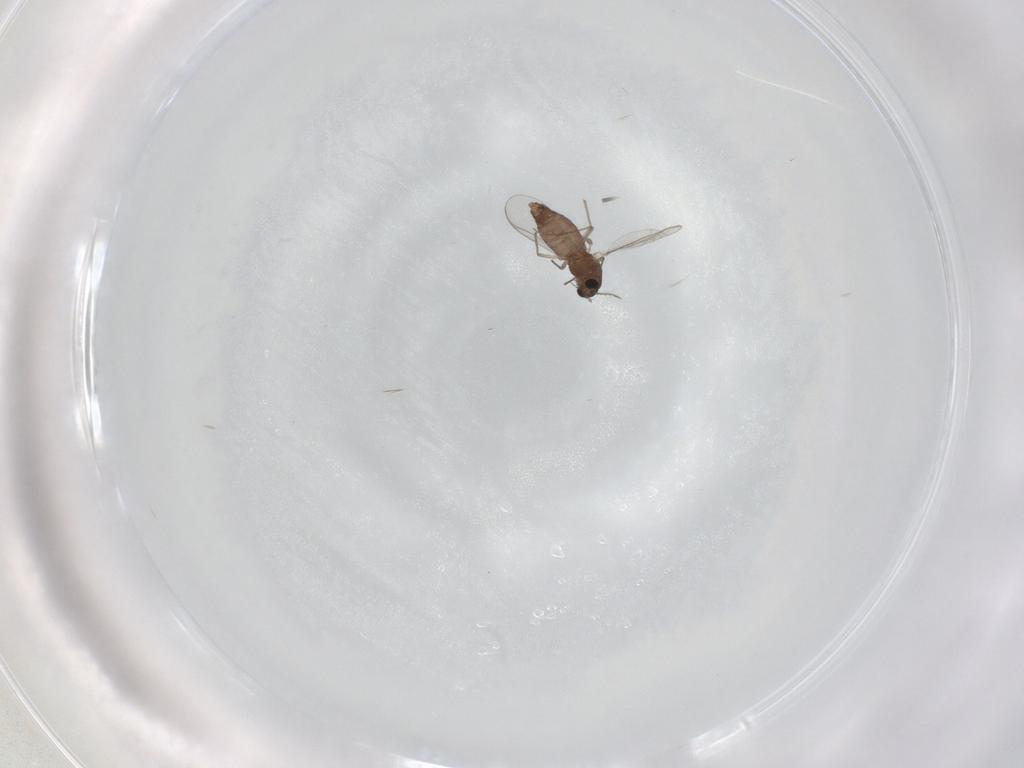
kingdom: Animalia
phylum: Arthropoda
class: Insecta
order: Diptera
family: Chironomidae
